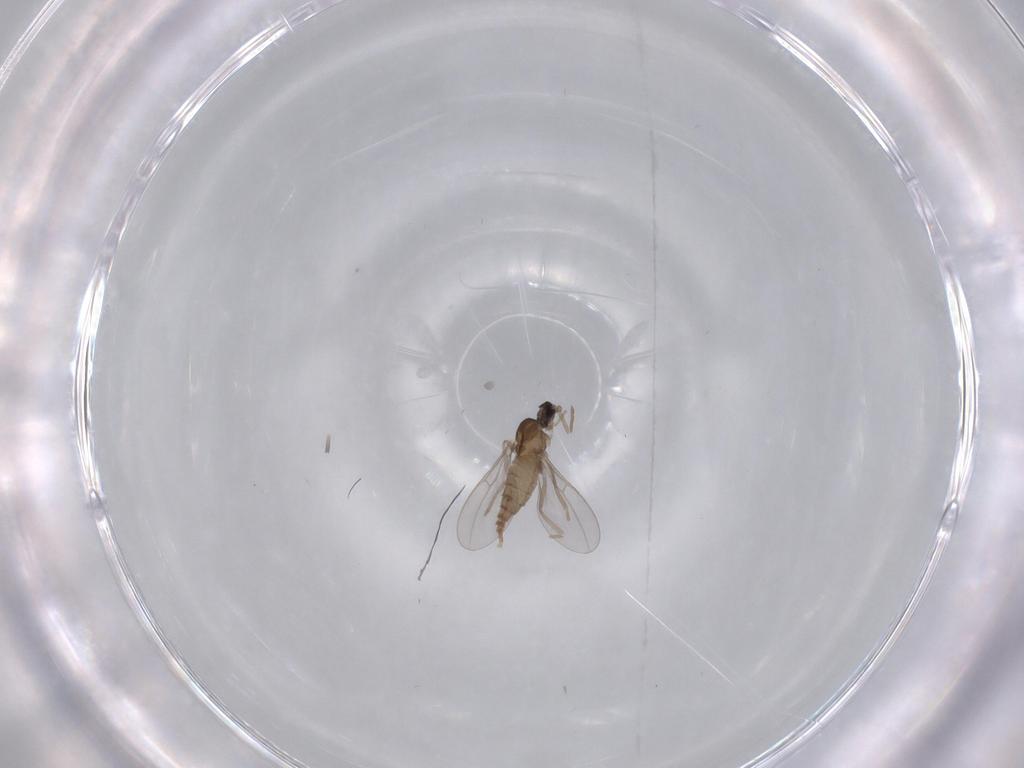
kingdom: Animalia
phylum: Arthropoda
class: Insecta
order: Diptera
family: Cecidomyiidae
